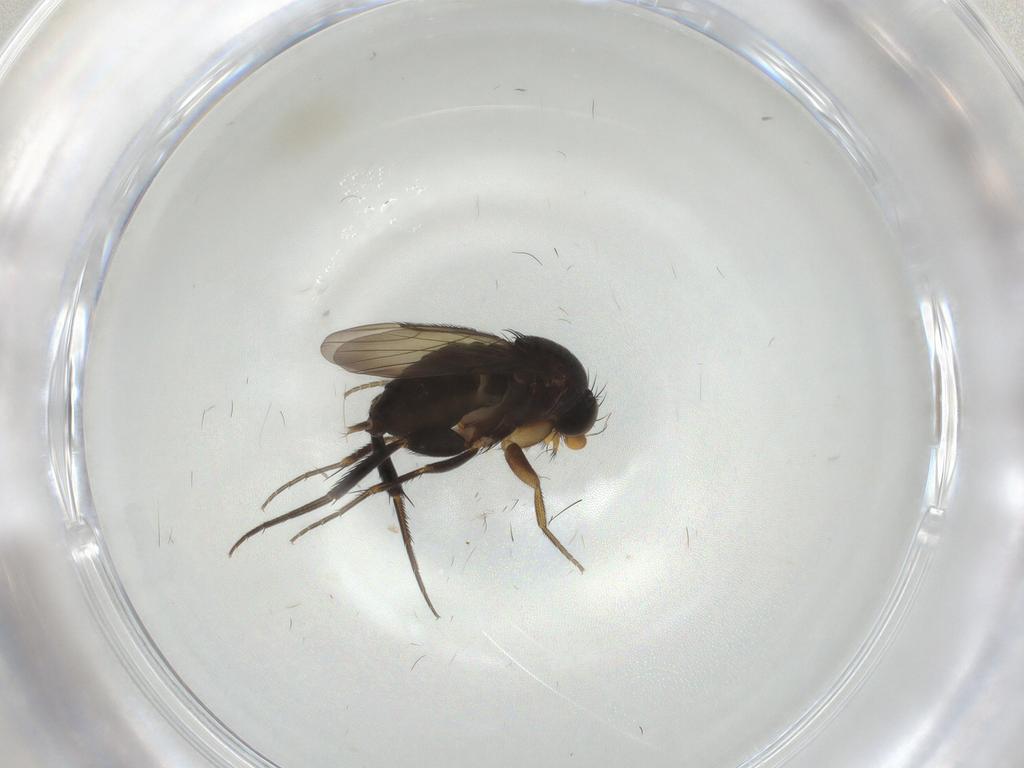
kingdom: Animalia
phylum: Arthropoda
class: Insecta
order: Diptera
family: Phoridae
